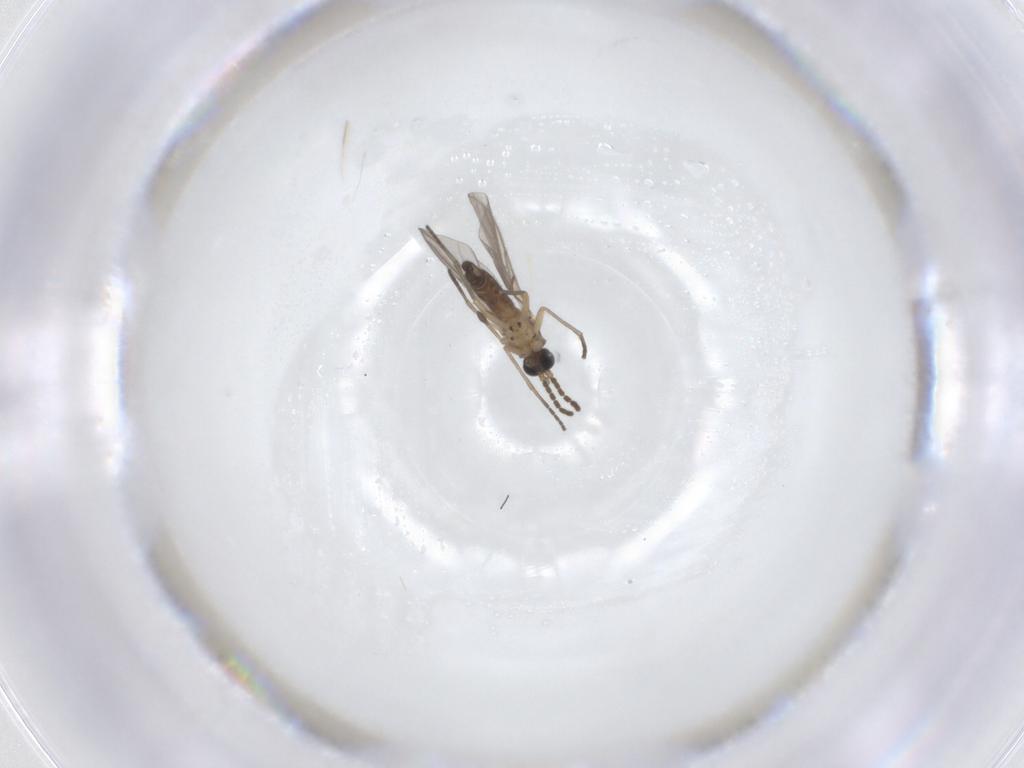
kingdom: Animalia
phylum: Arthropoda
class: Insecta
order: Diptera
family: Sciaridae
